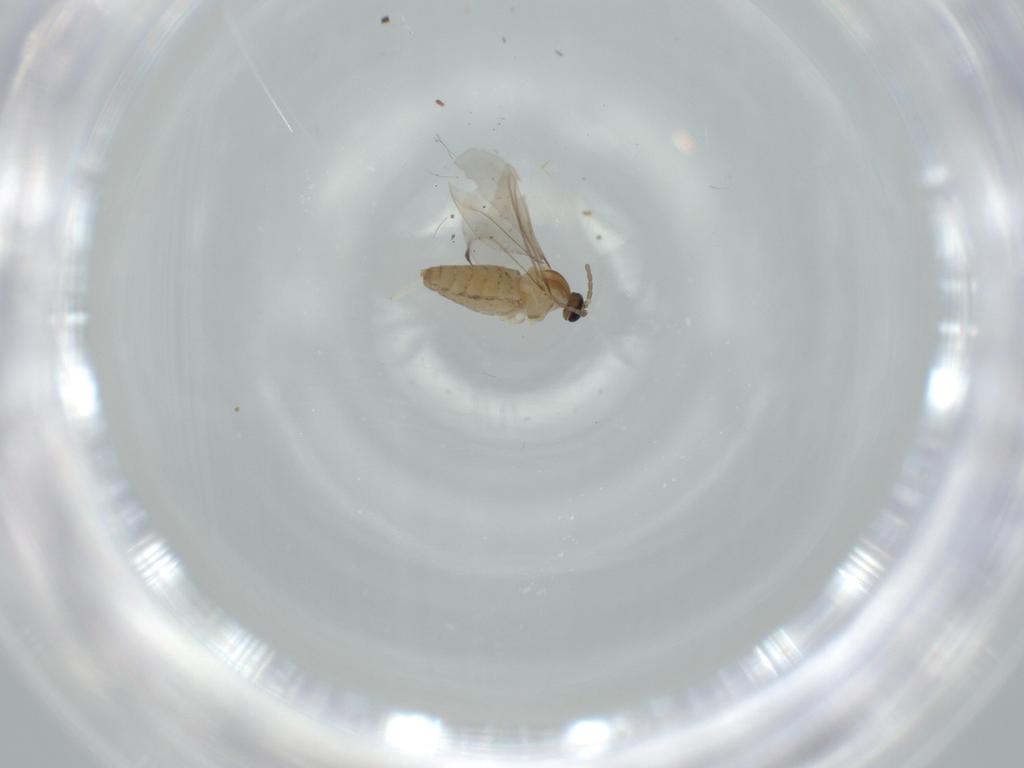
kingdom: Animalia
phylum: Arthropoda
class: Insecta
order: Diptera
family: Cecidomyiidae
